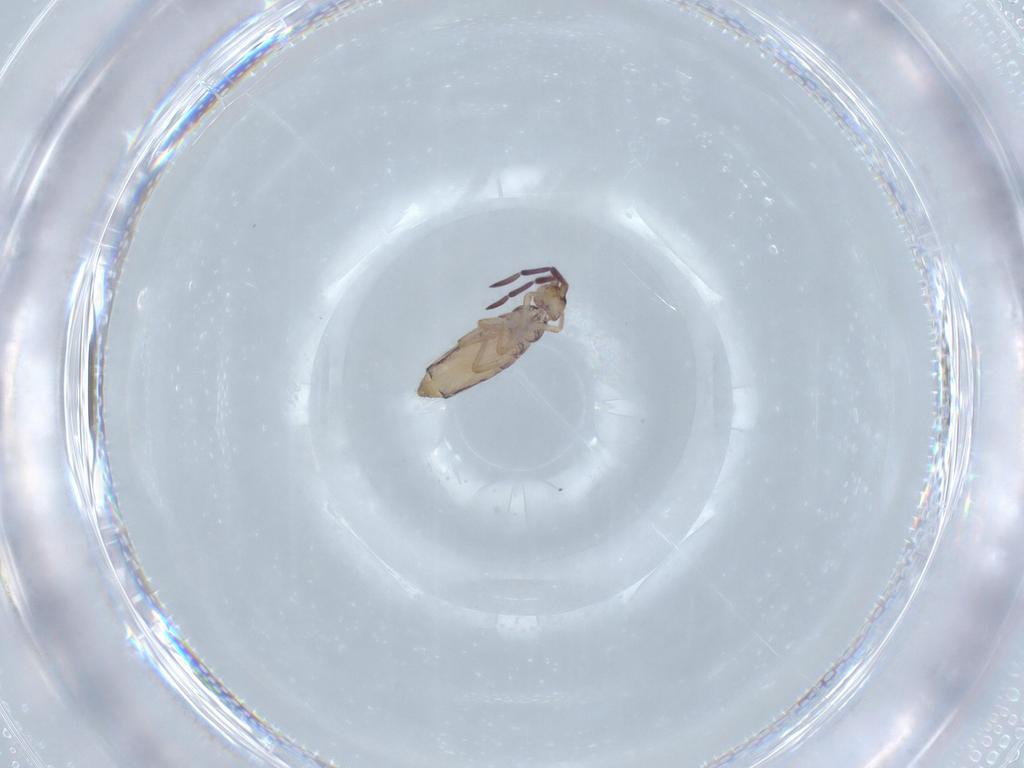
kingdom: Animalia
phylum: Arthropoda
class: Collembola
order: Entomobryomorpha
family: Entomobryidae
